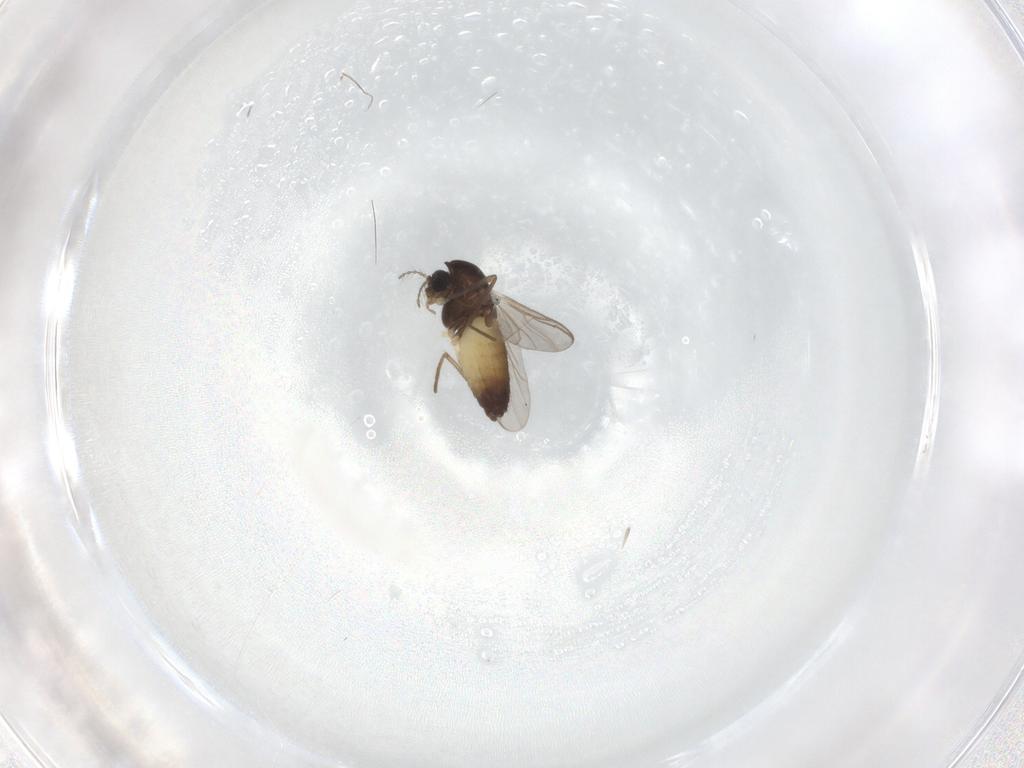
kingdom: Animalia
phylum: Arthropoda
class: Insecta
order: Diptera
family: Chironomidae
